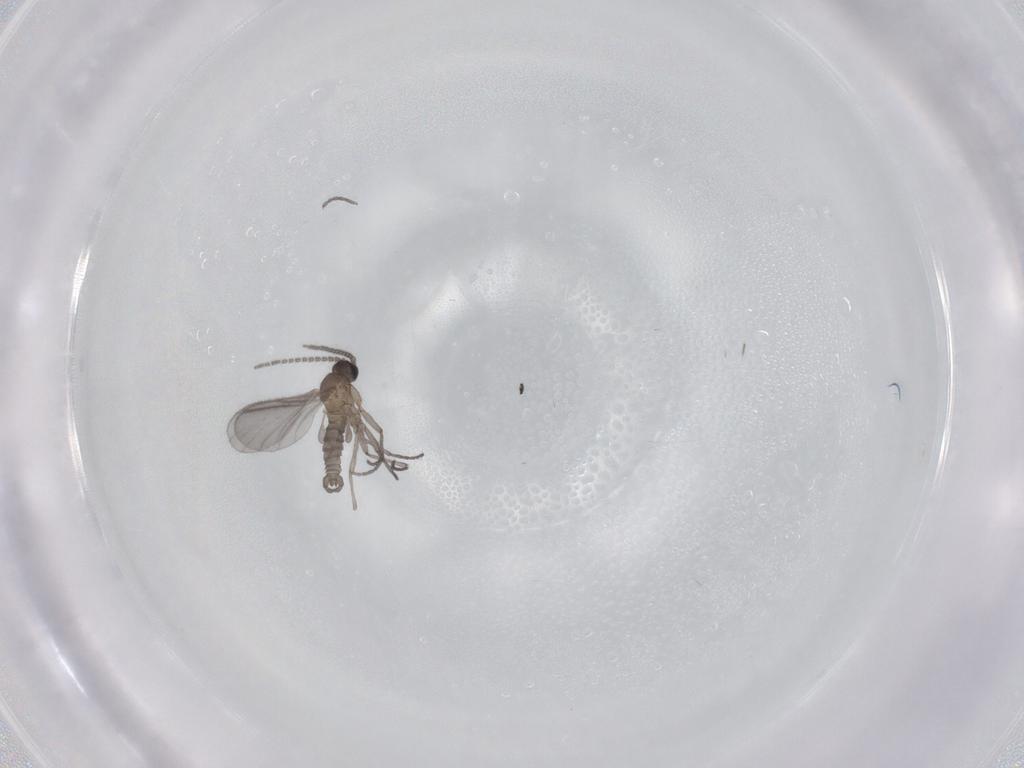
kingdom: Animalia
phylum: Arthropoda
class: Insecta
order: Diptera
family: Sciaridae
